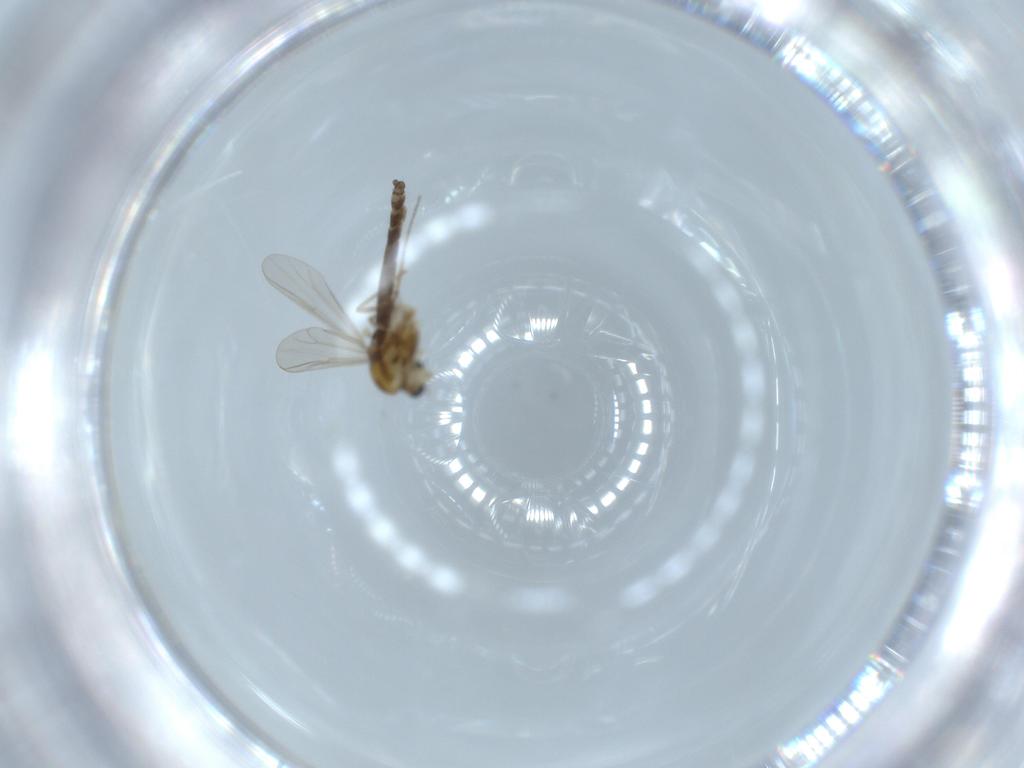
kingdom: Animalia
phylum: Arthropoda
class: Insecta
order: Diptera
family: Chironomidae
